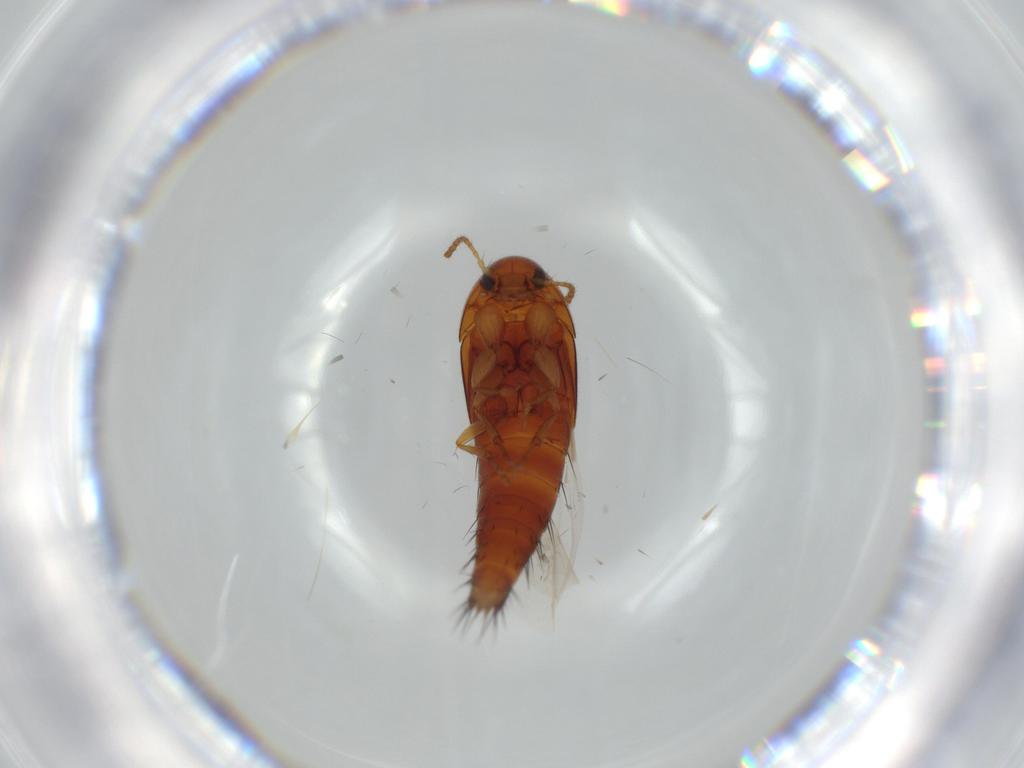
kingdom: Animalia
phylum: Arthropoda
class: Insecta
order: Coleoptera
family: Staphylinidae
